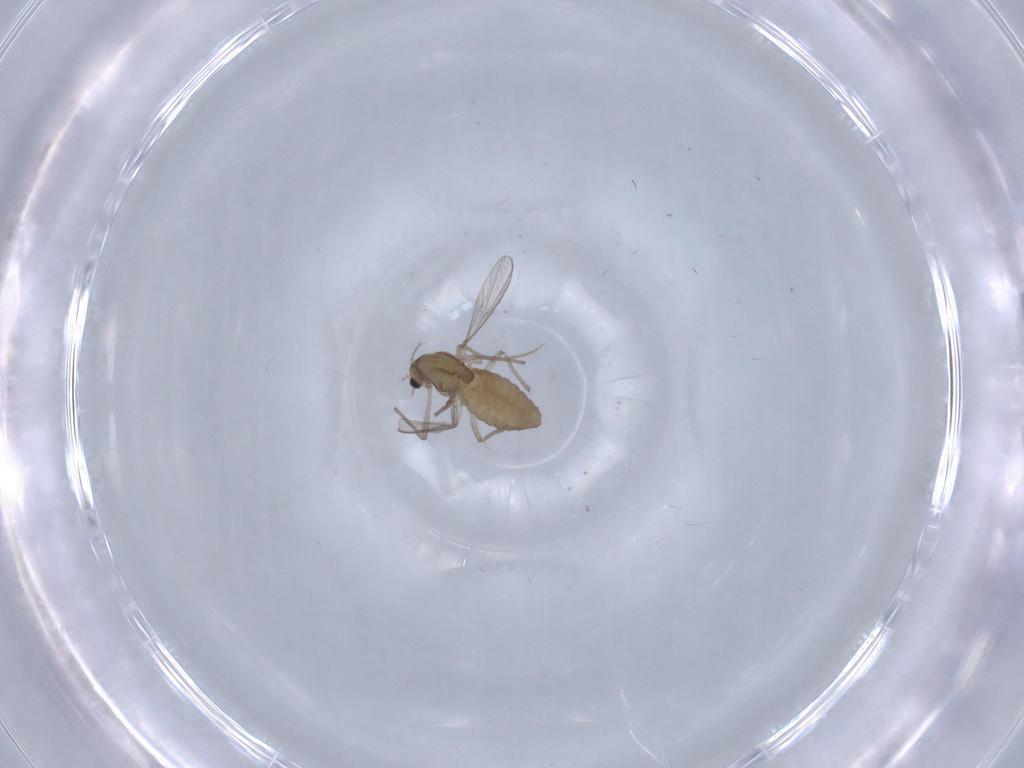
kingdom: Animalia
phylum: Arthropoda
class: Insecta
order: Diptera
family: Chironomidae
